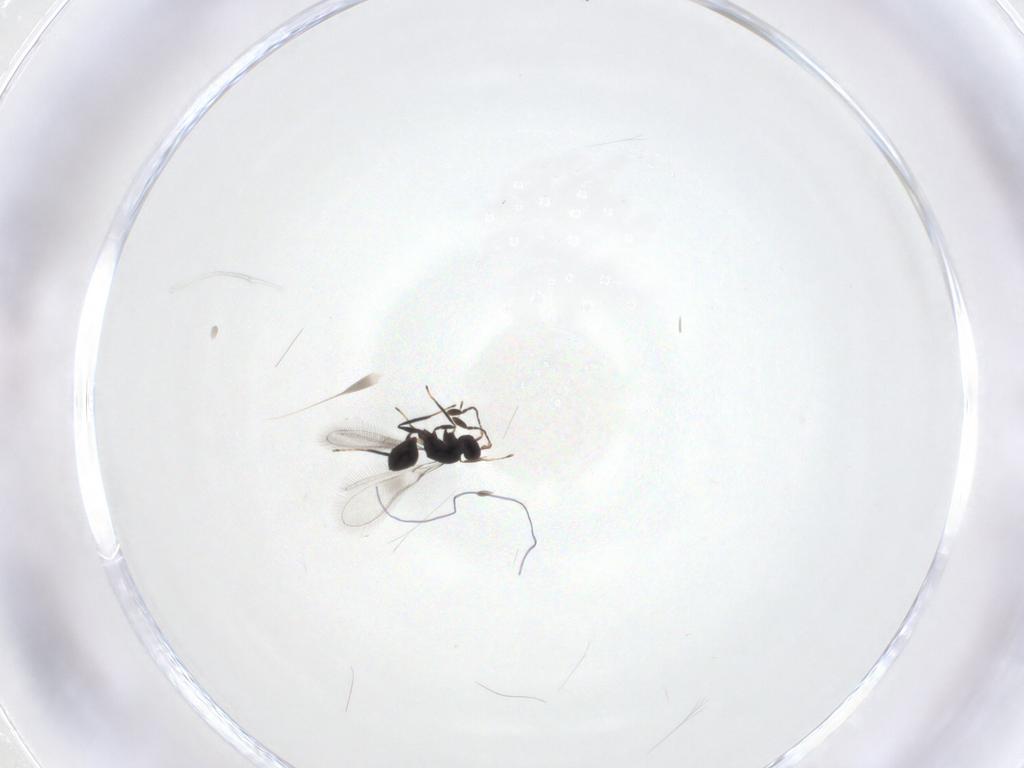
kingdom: Animalia
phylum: Arthropoda
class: Insecta
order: Hymenoptera
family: Mymaridae
